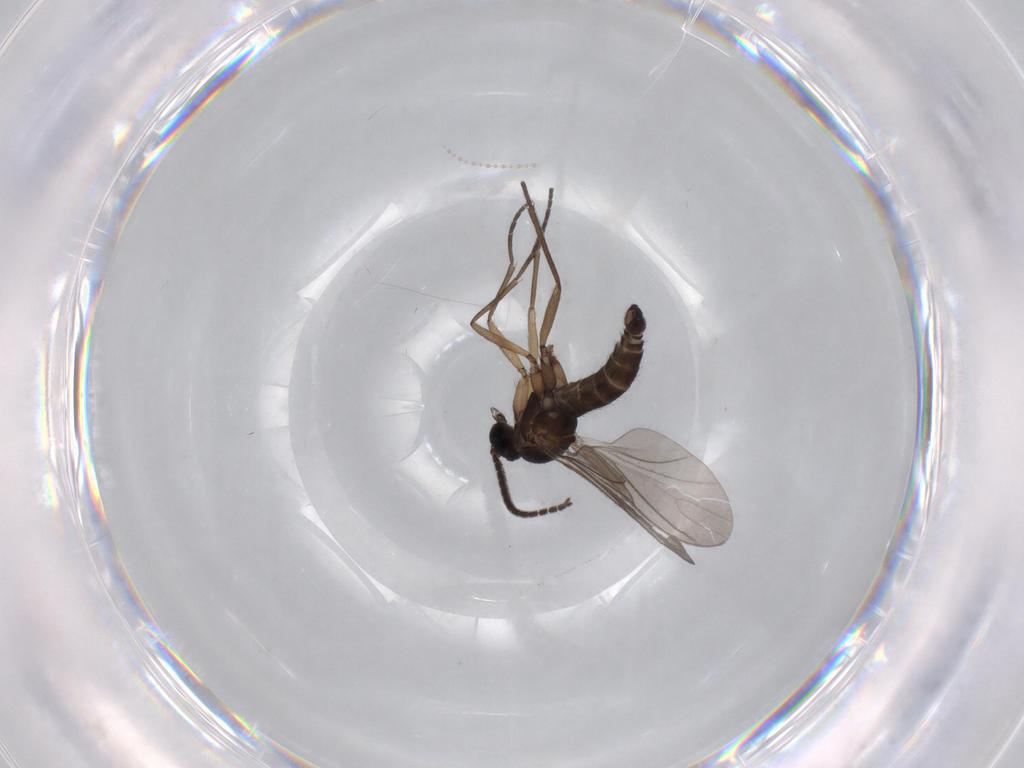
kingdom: Animalia
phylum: Arthropoda
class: Insecta
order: Diptera
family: Sciaridae
